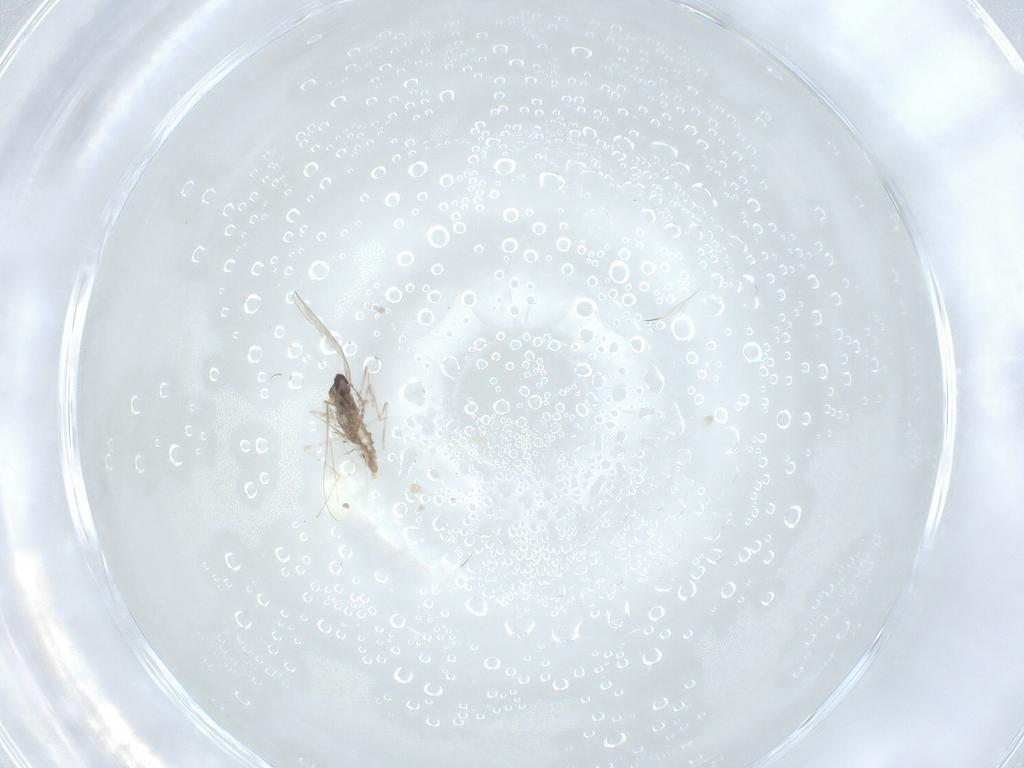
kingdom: Animalia
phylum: Arthropoda
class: Insecta
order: Diptera
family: Cecidomyiidae
